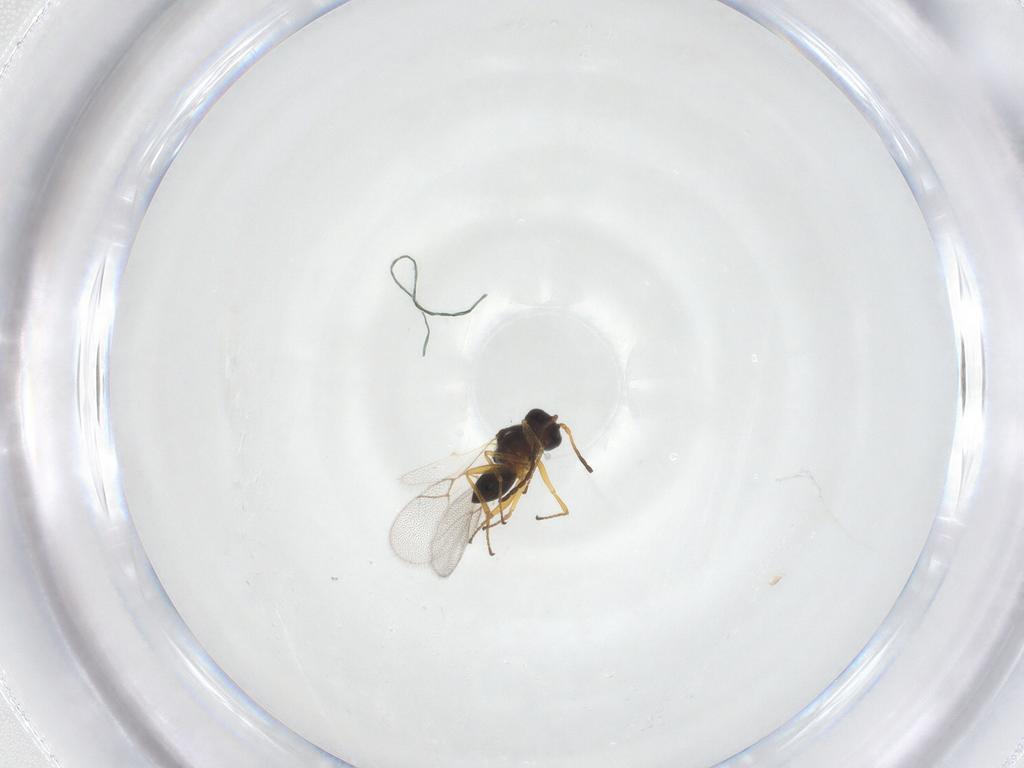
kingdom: Animalia
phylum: Arthropoda
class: Insecta
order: Hymenoptera
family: Figitidae
